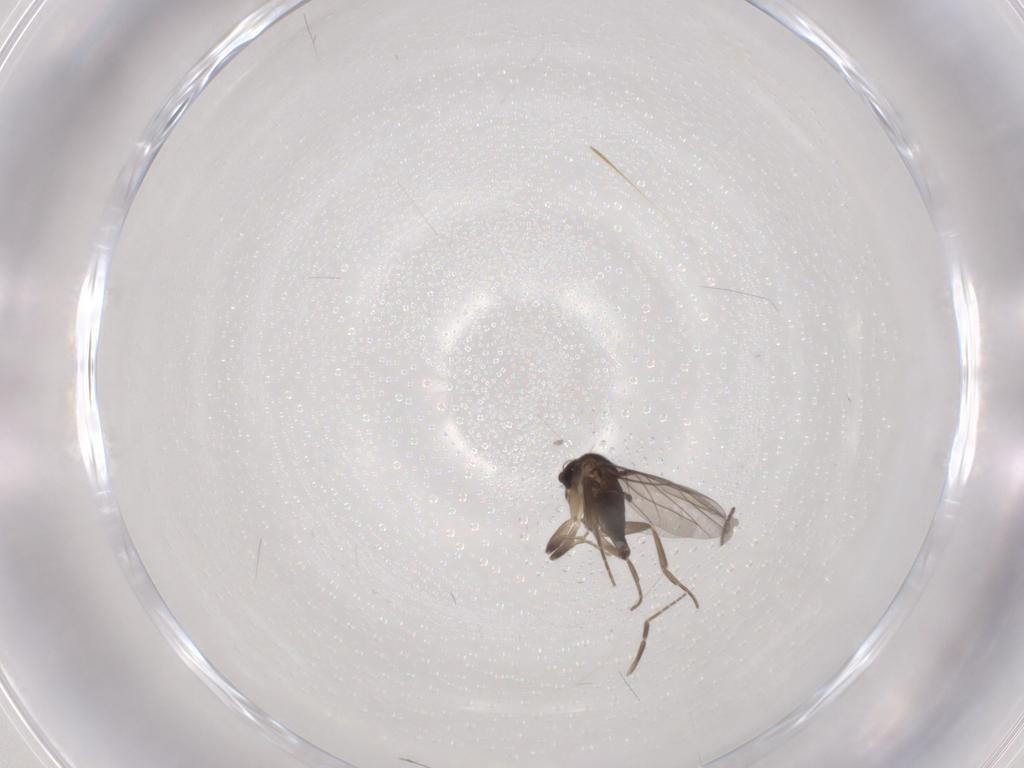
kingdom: Animalia
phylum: Arthropoda
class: Insecta
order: Diptera
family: Phoridae
